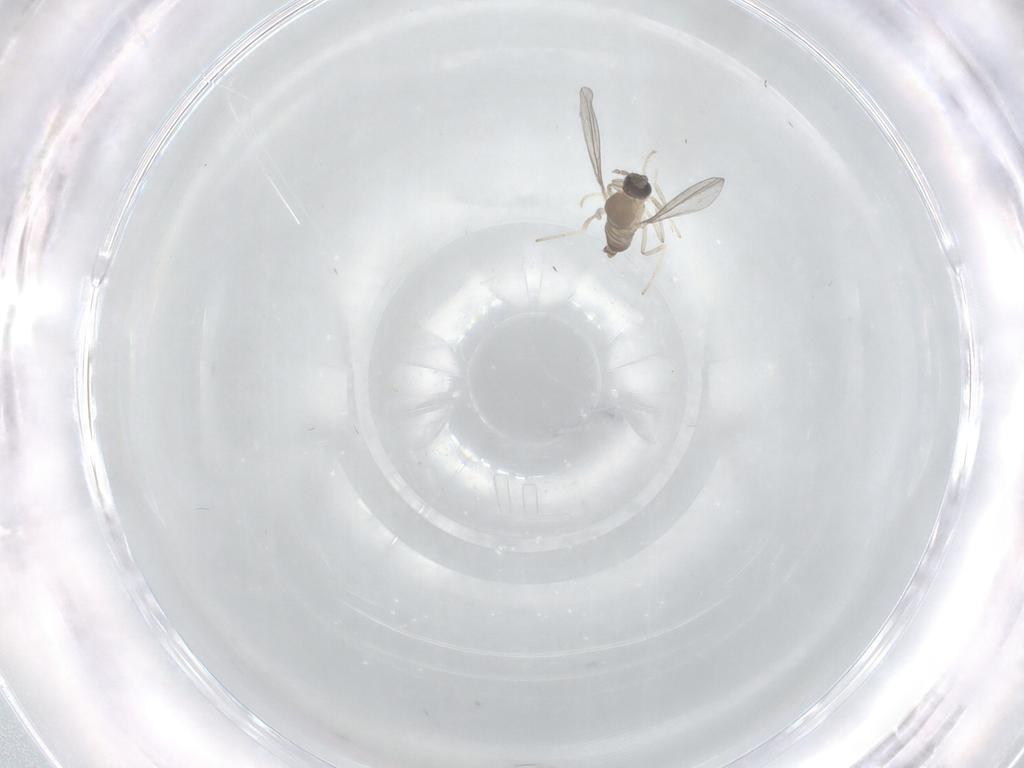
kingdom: Animalia
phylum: Arthropoda
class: Insecta
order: Diptera
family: Cecidomyiidae
